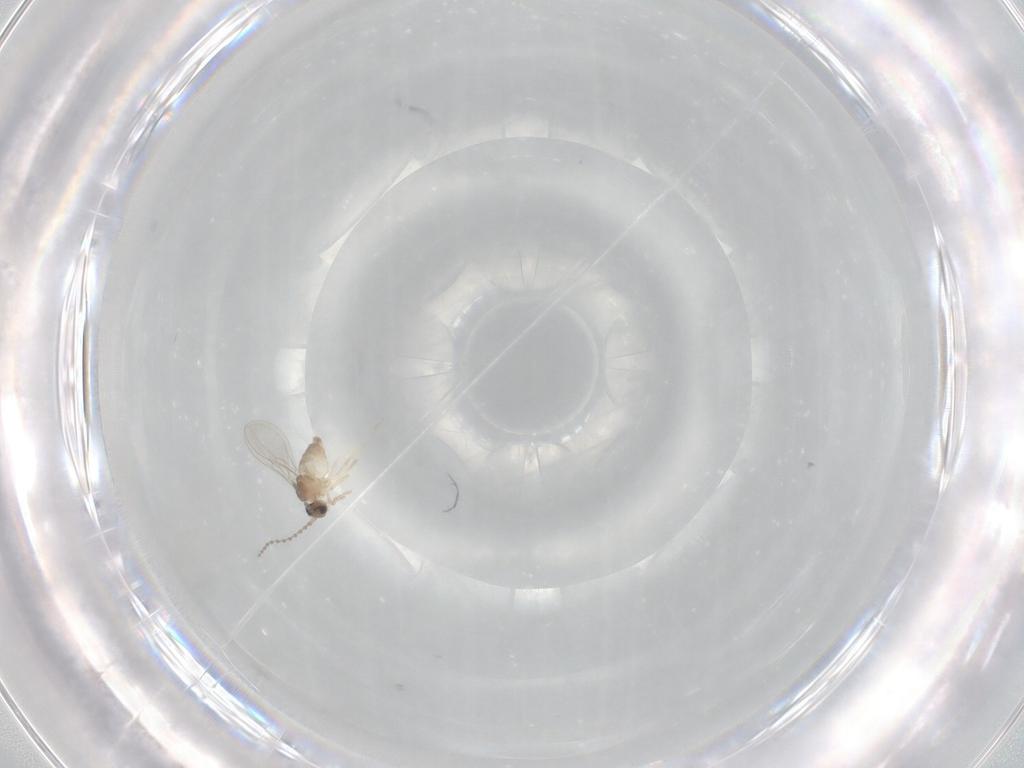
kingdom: Animalia
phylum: Arthropoda
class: Insecta
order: Diptera
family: Cecidomyiidae
